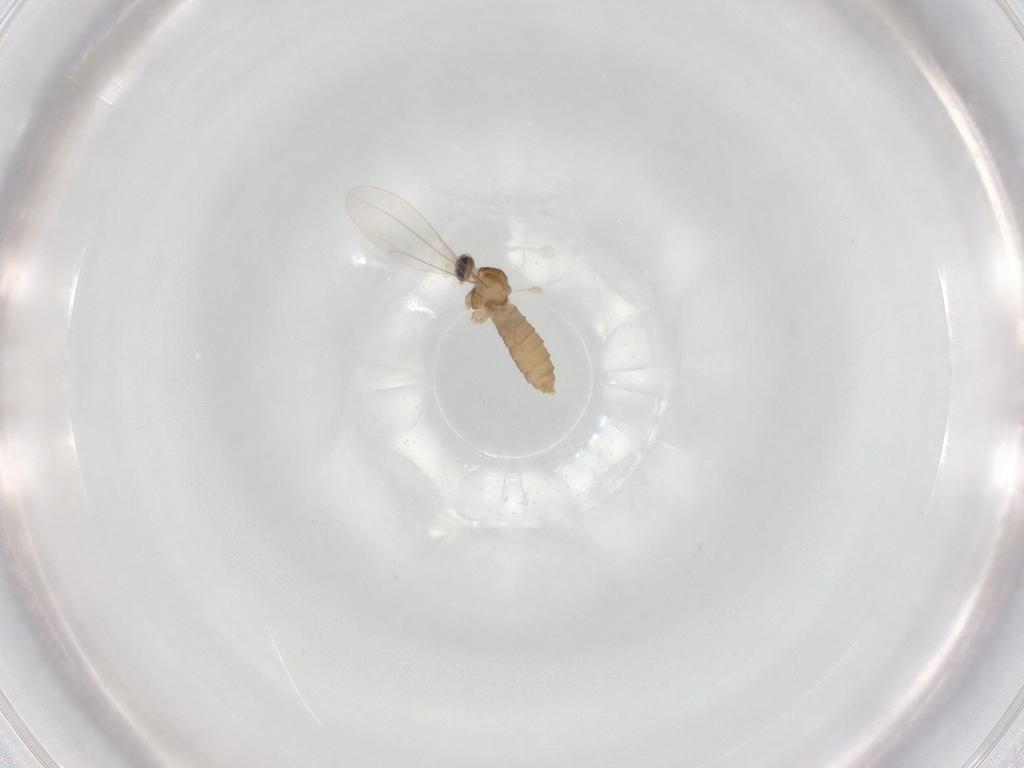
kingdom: Animalia
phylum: Arthropoda
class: Insecta
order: Diptera
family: Cecidomyiidae
